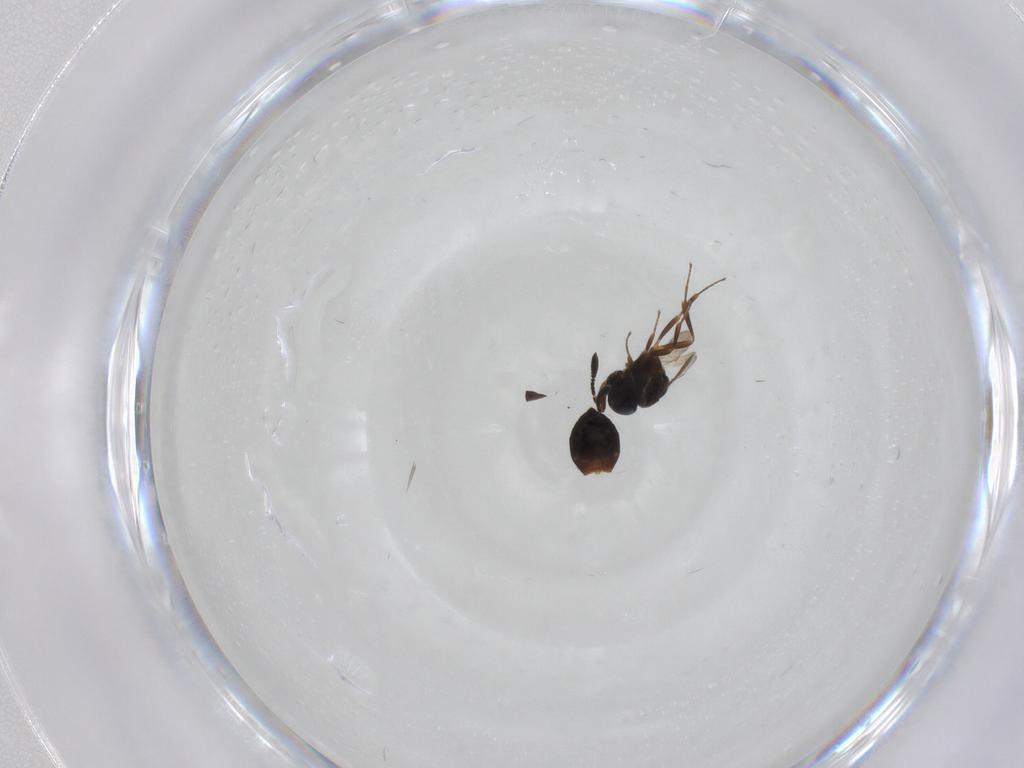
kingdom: Animalia
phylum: Arthropoda
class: Insecta
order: Hymenoptera
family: Scelionidae
